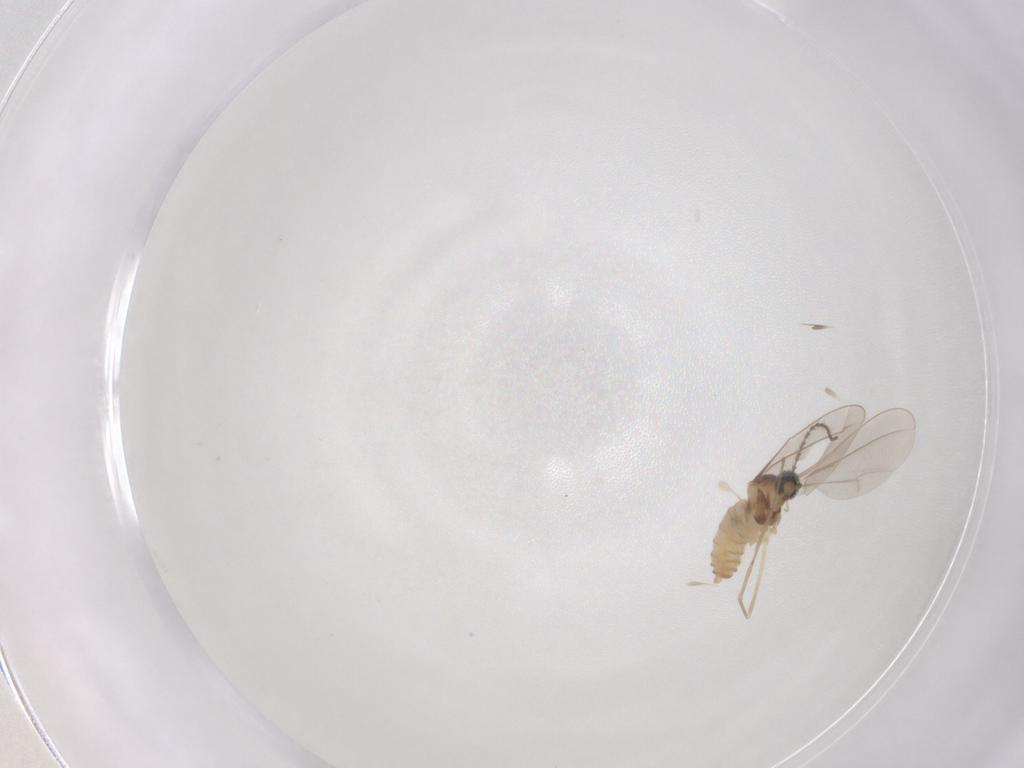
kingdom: Animalia
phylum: Arthropoda
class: Insecta
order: Diptera
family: Cecidomyiidae
